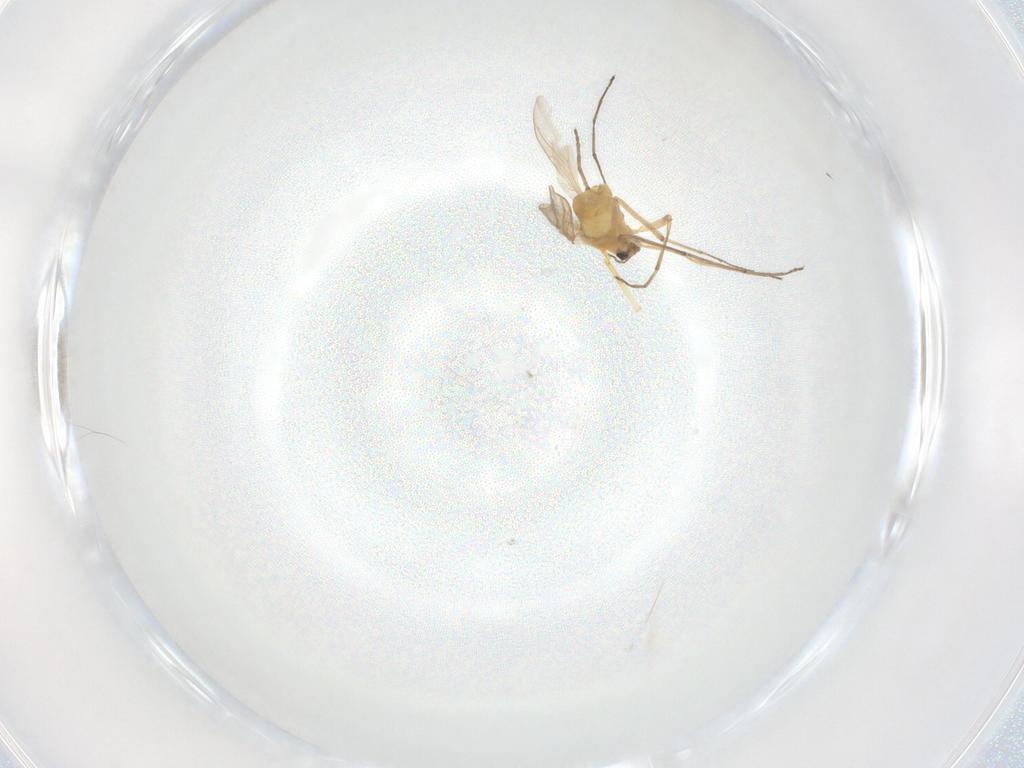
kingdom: Animalia
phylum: Arthropoda
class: Insecta
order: Diptera
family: Chironomidae
